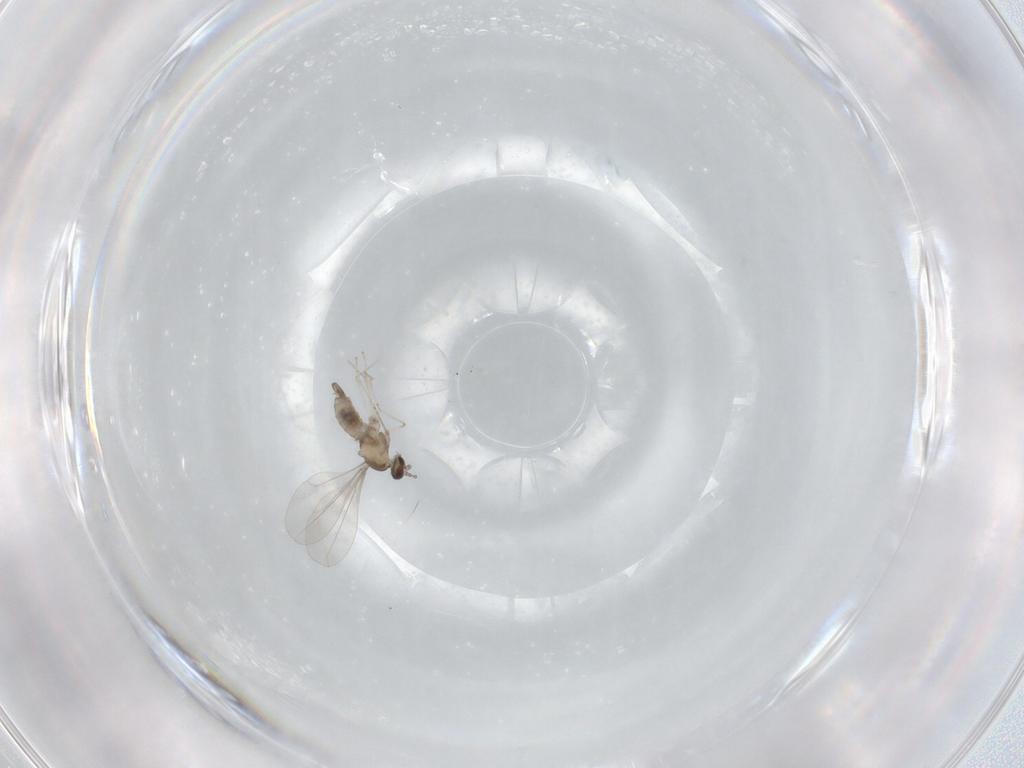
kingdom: Animalia
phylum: Arthropoda
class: Insecta
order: Diptera
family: Cecidomyiidae
